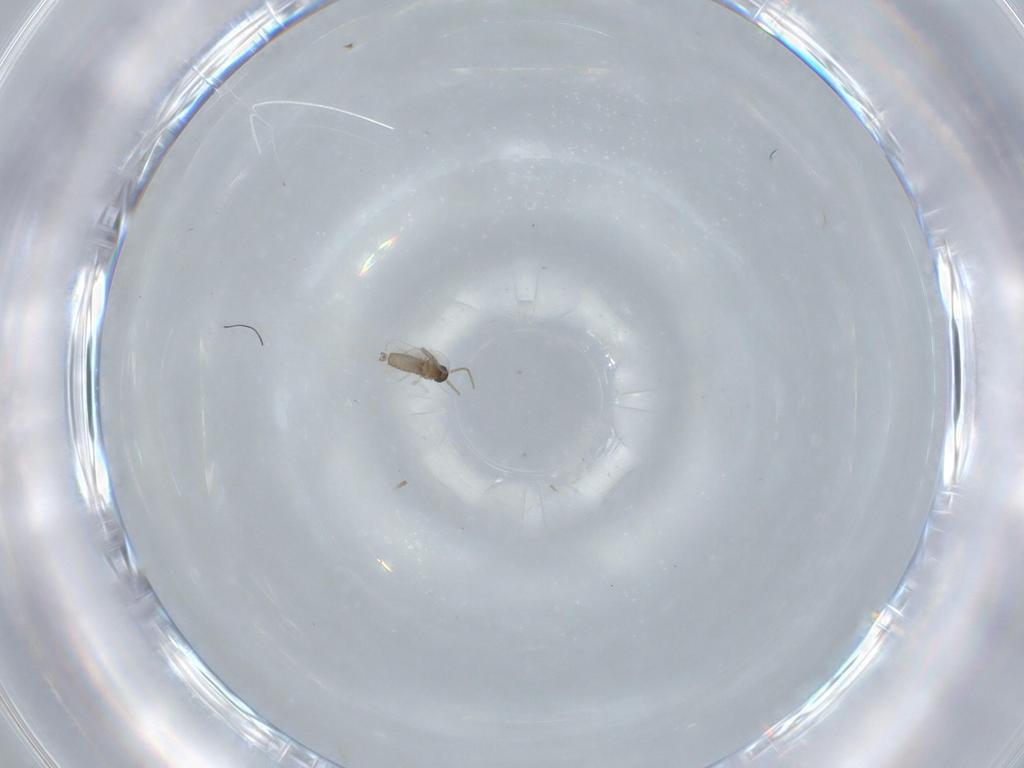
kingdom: Animalia
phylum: Arthropoda
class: Insecta
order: Diptera
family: Cecidomyiidae
